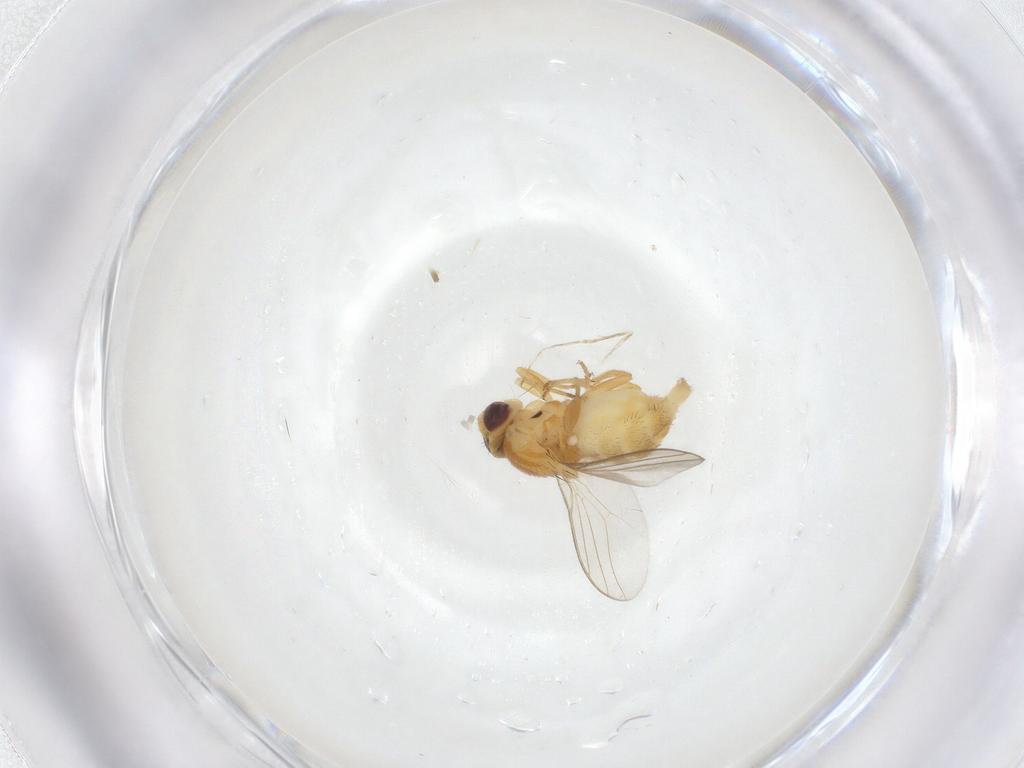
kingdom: Animalia
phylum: Arthropoda
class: Insecta
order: Diptera
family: Chloropidae
